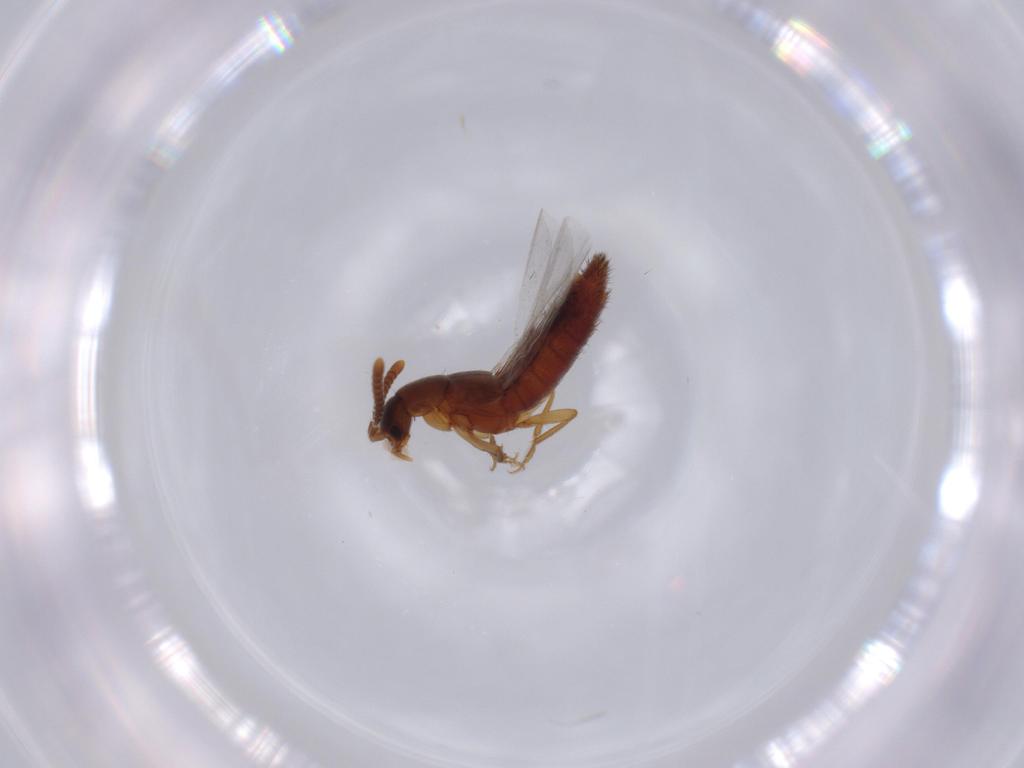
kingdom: Animalia
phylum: Arthropoda
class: Insecta
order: Coleoptera
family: Staphylinidae
